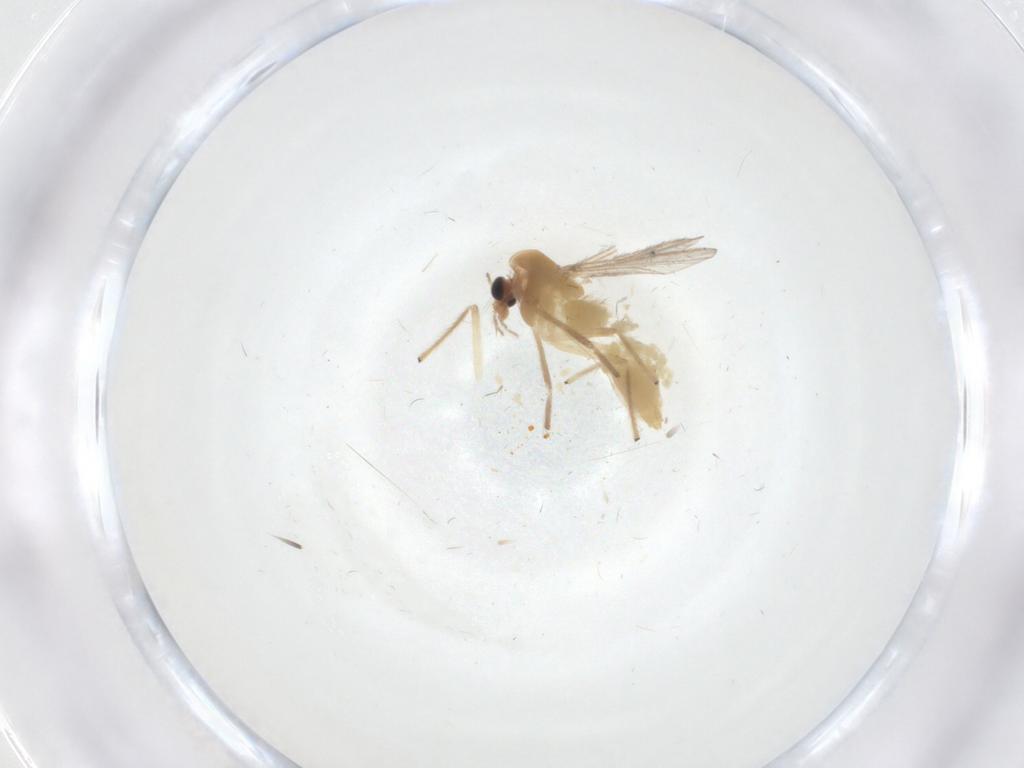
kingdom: Animalia
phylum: Arthropoda
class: Insecta
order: Diptera
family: Chironomidae
